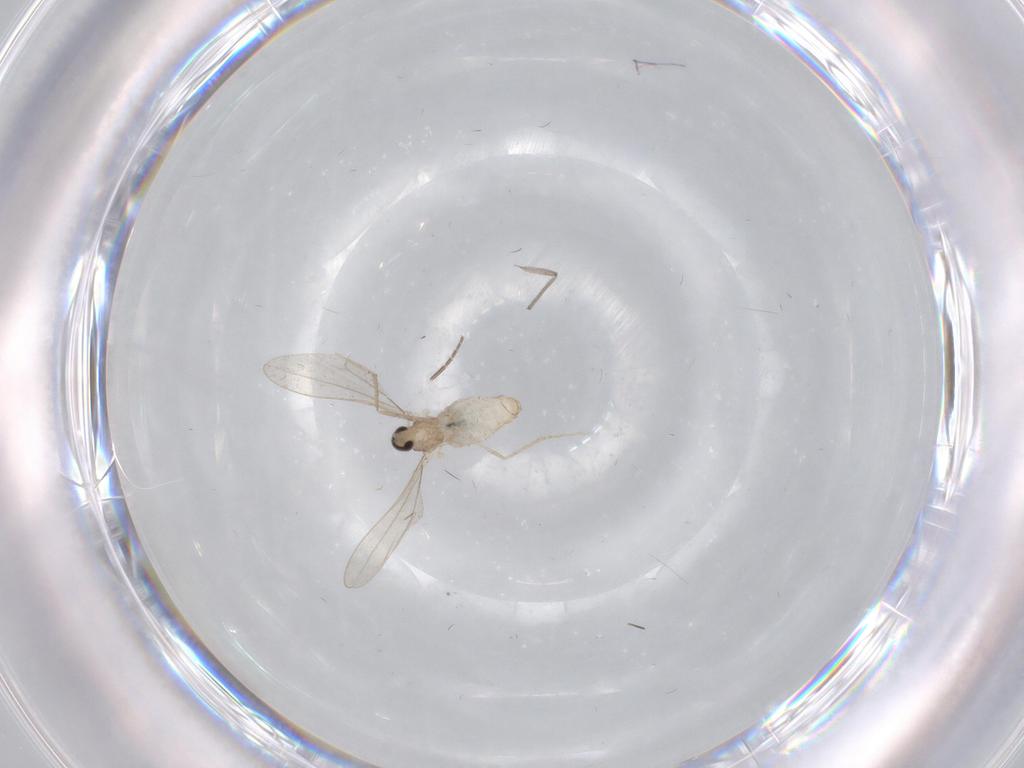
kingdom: Animalia
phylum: Arthropoda
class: Insecta
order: Diptera
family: Cecidomyiidae
